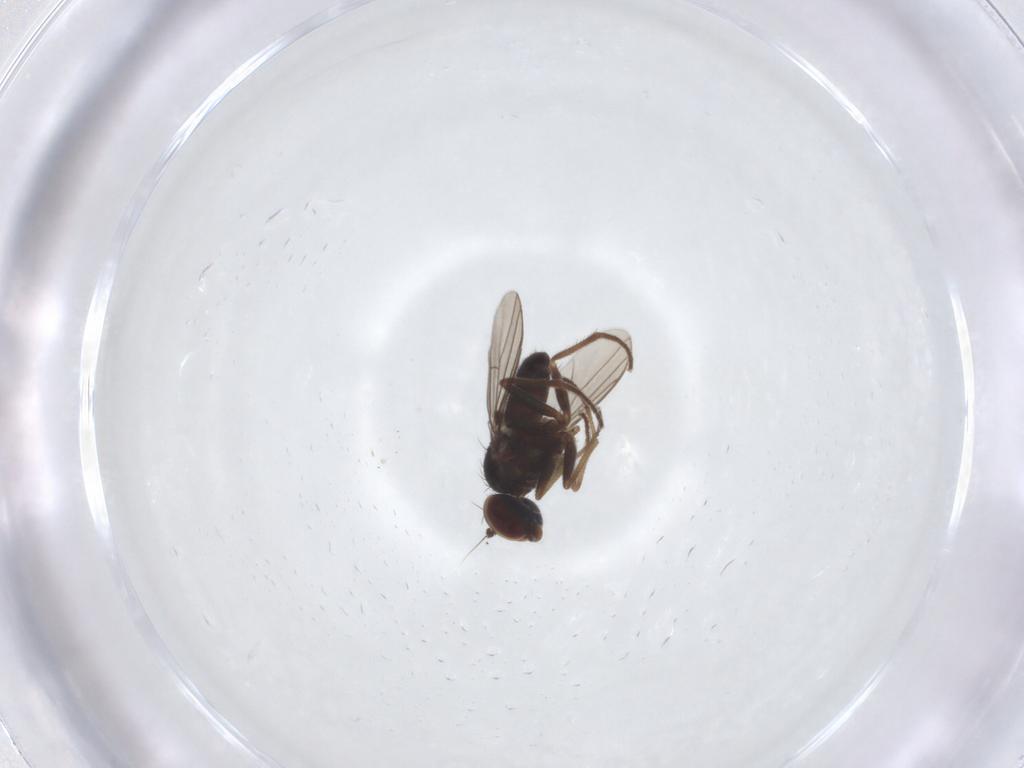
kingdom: Animalia
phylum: Arthropoda
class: Insecta
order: Diptera
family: Dolichopodidae
